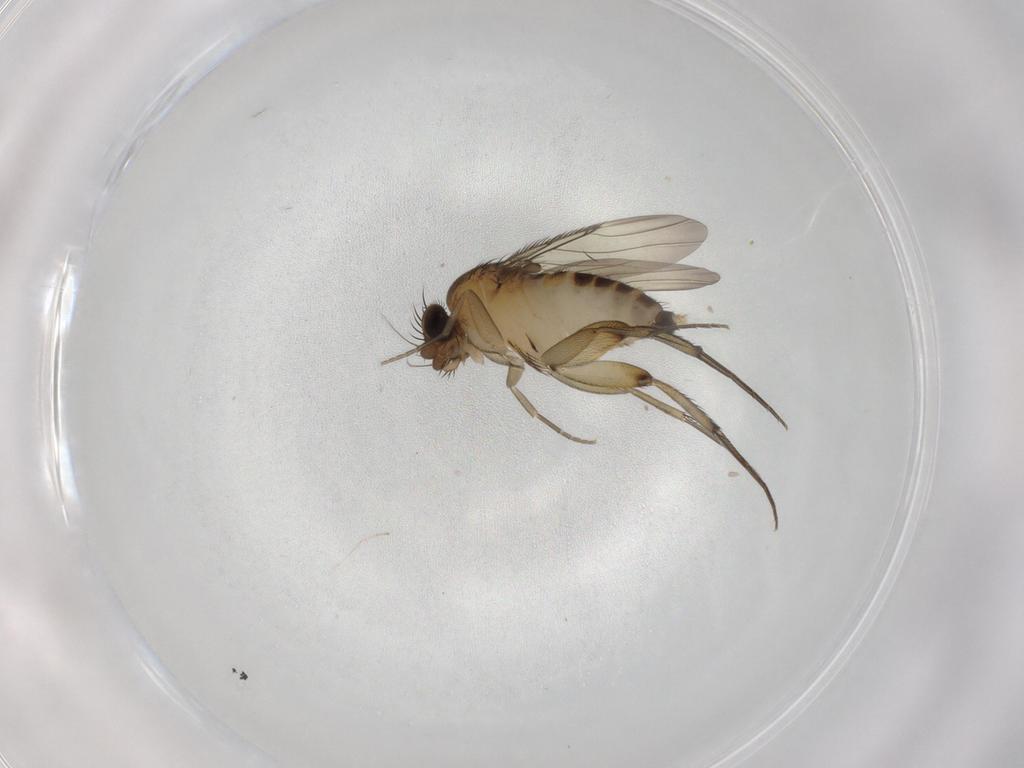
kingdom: Animalia
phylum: Arthropoda
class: Insecta
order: Diptera
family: Phoridae
